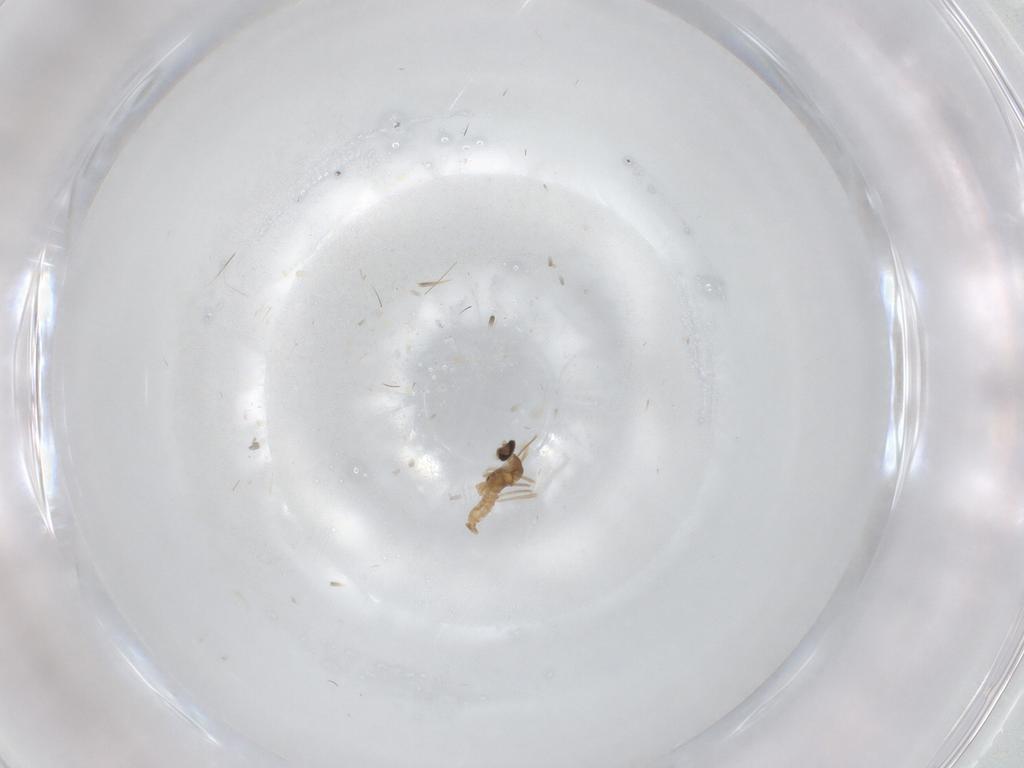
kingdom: Animalia
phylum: Arthropoda
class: Insecta
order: Diptera
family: Cecidomyiidae
